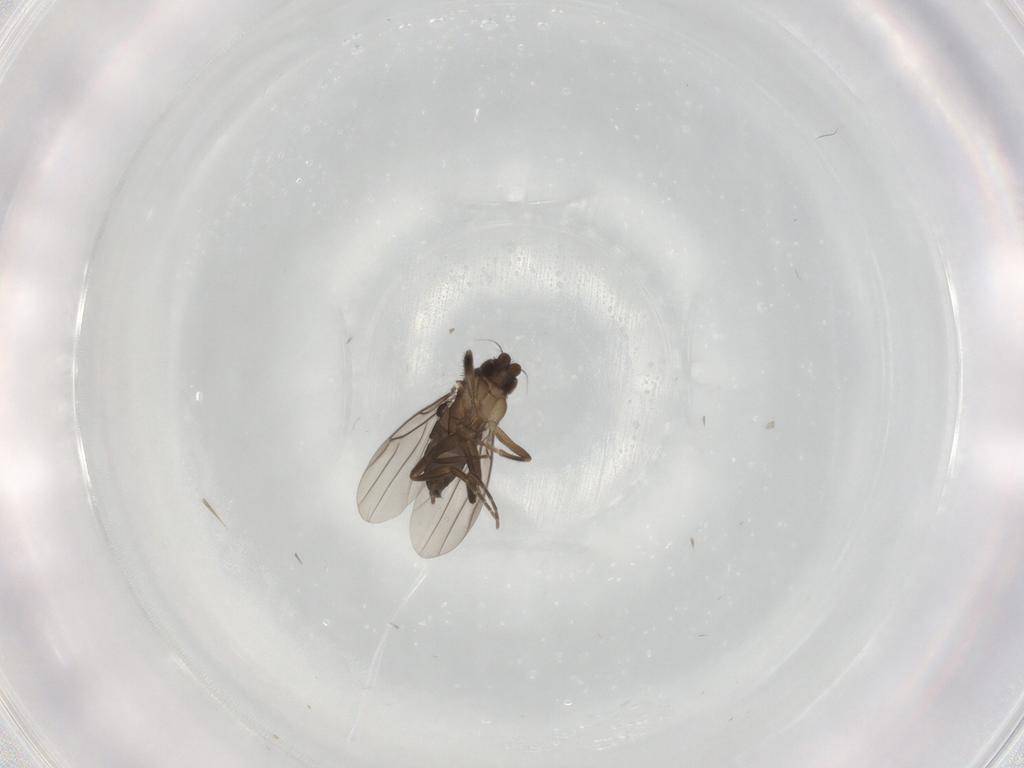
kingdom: Animalia
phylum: Arthropoda
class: Insecta
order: Diptera
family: Phoridae
